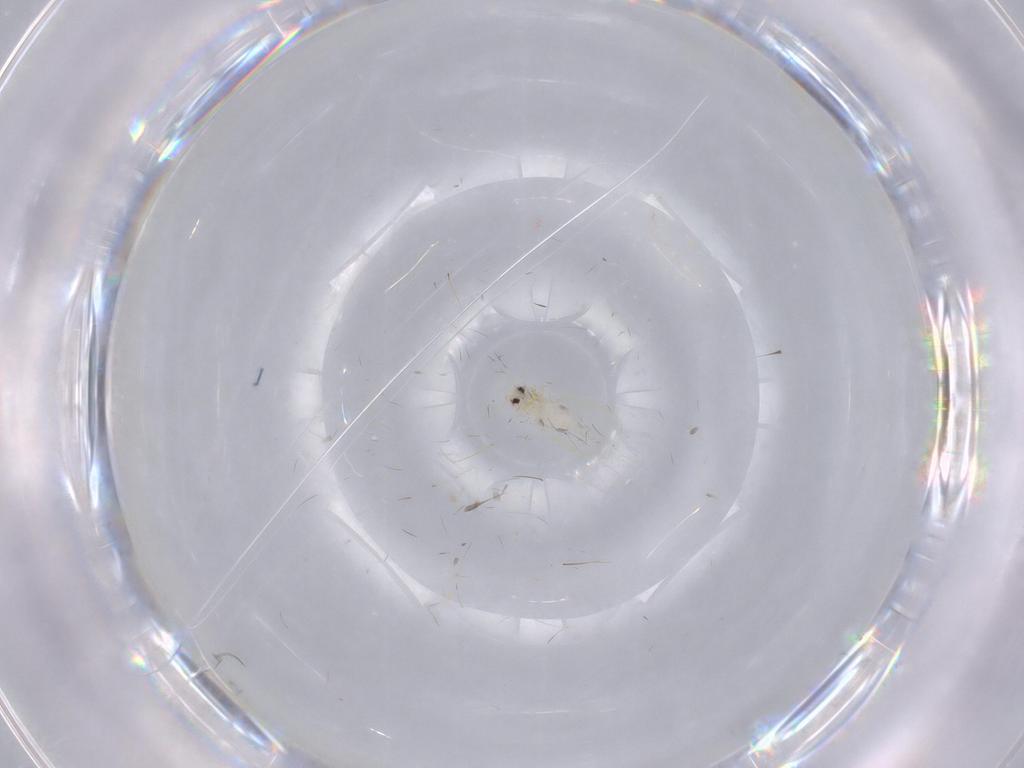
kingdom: Animalia
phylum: Arthropoda
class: Insecta
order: Hemiptera
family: Aleyrodidae
